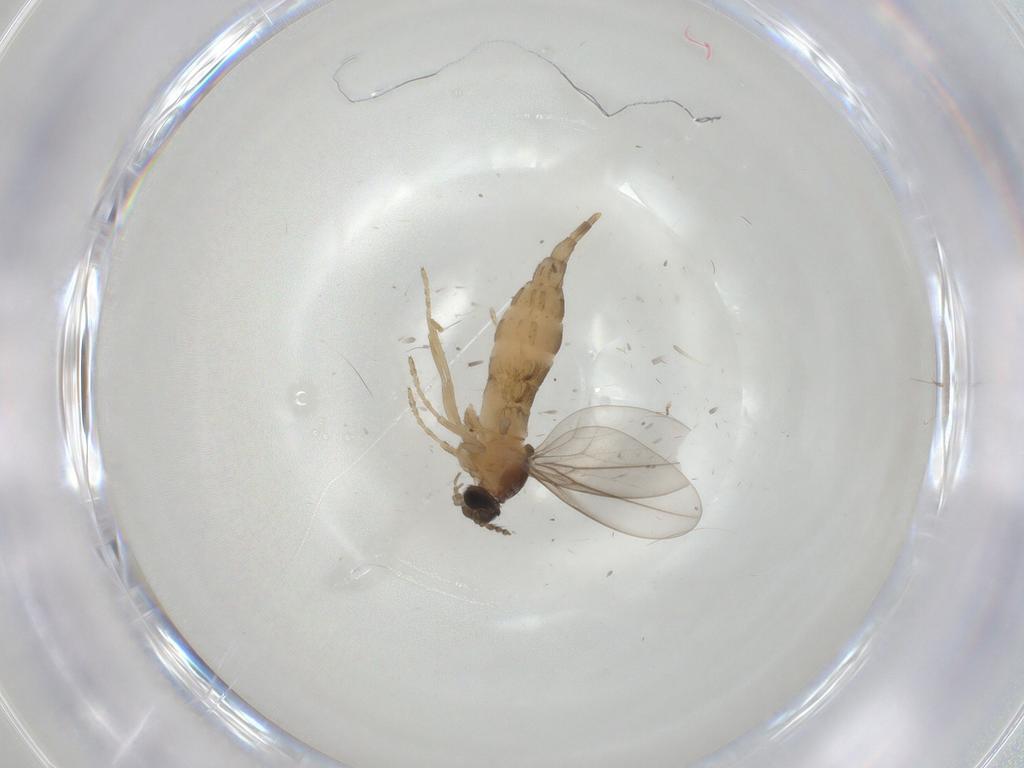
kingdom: Animalia
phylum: Arthropoda
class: Insecta
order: Diptera
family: Cecidomyiidae
